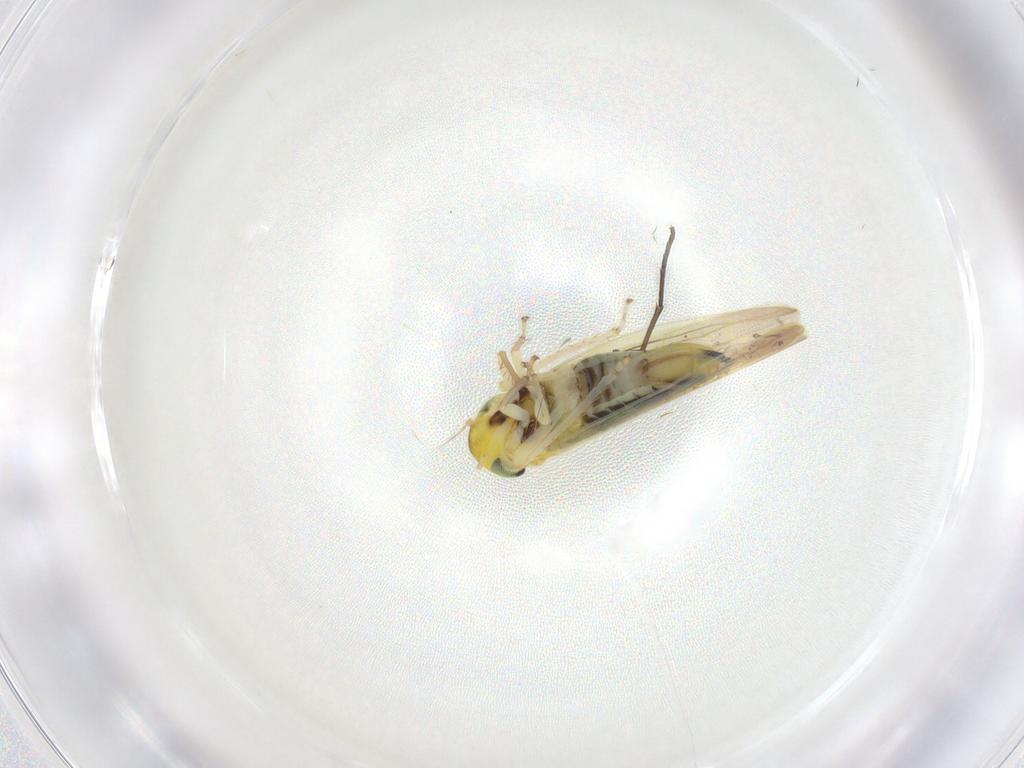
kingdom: Animalia
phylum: Arthropoda
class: Insecta
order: Hemiptera
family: Cicadellidae
